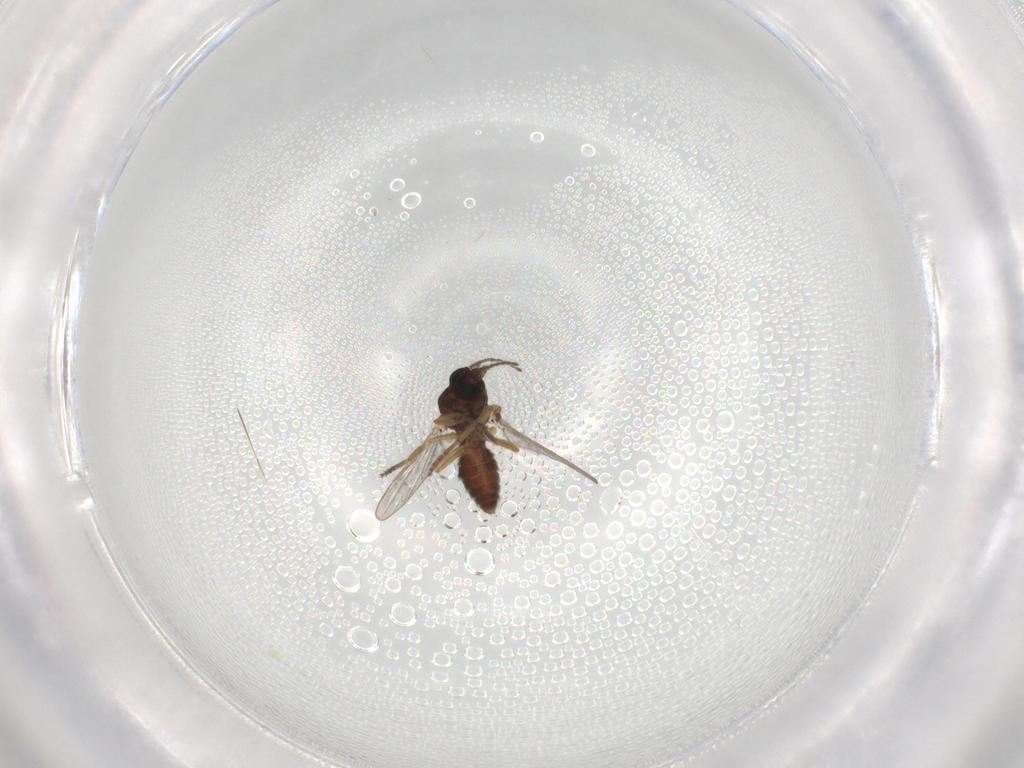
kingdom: Animalia
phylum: Arthropoda
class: Insecta
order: Diptera
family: Ceratopogonidae
